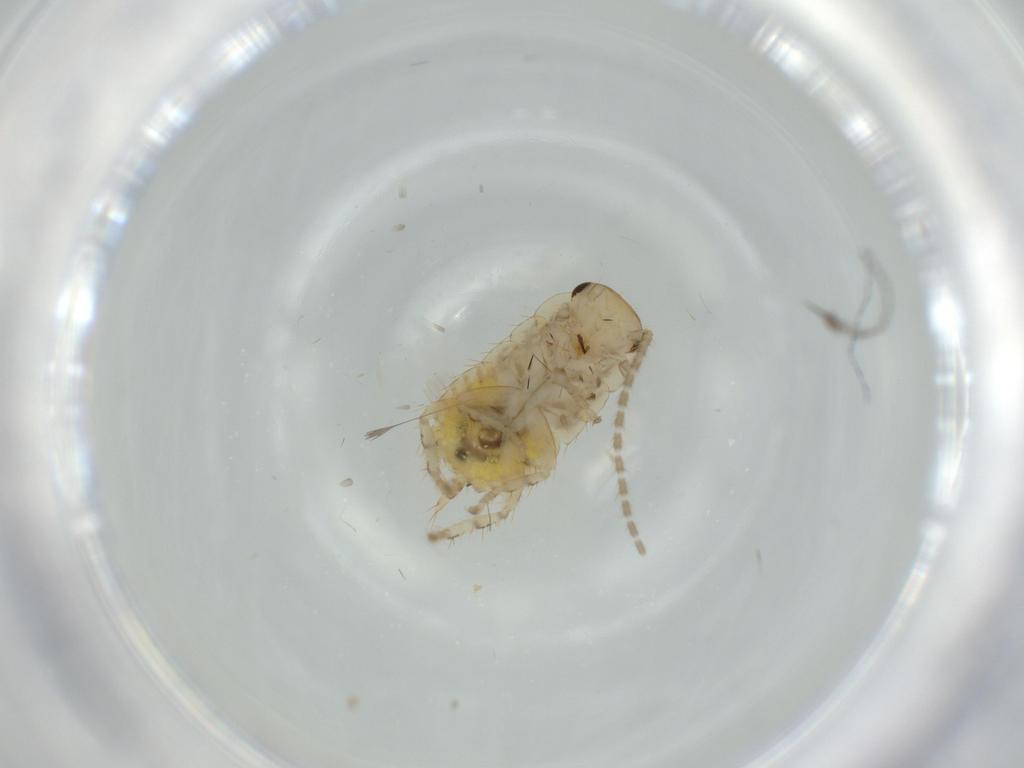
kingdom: Animalia
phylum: Arthropoda
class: Insecta
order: Blattodea
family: Ectobiidae
